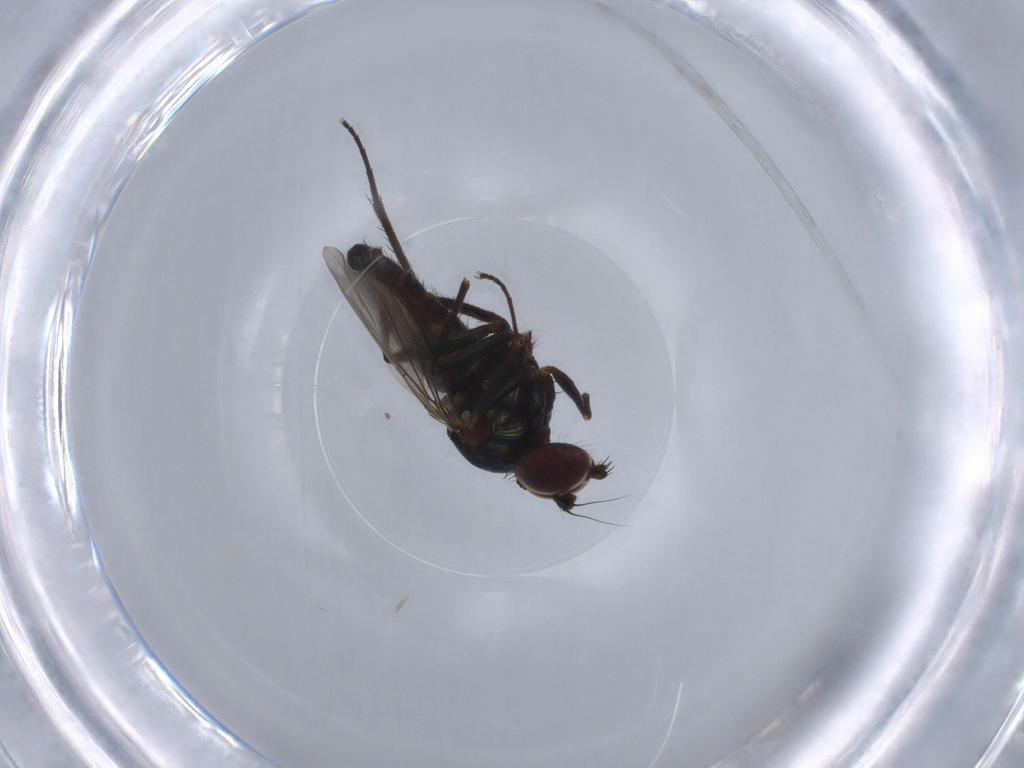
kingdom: Animalia
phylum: Arthropoda
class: Insecta
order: Diptera
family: Dolichopodidae
